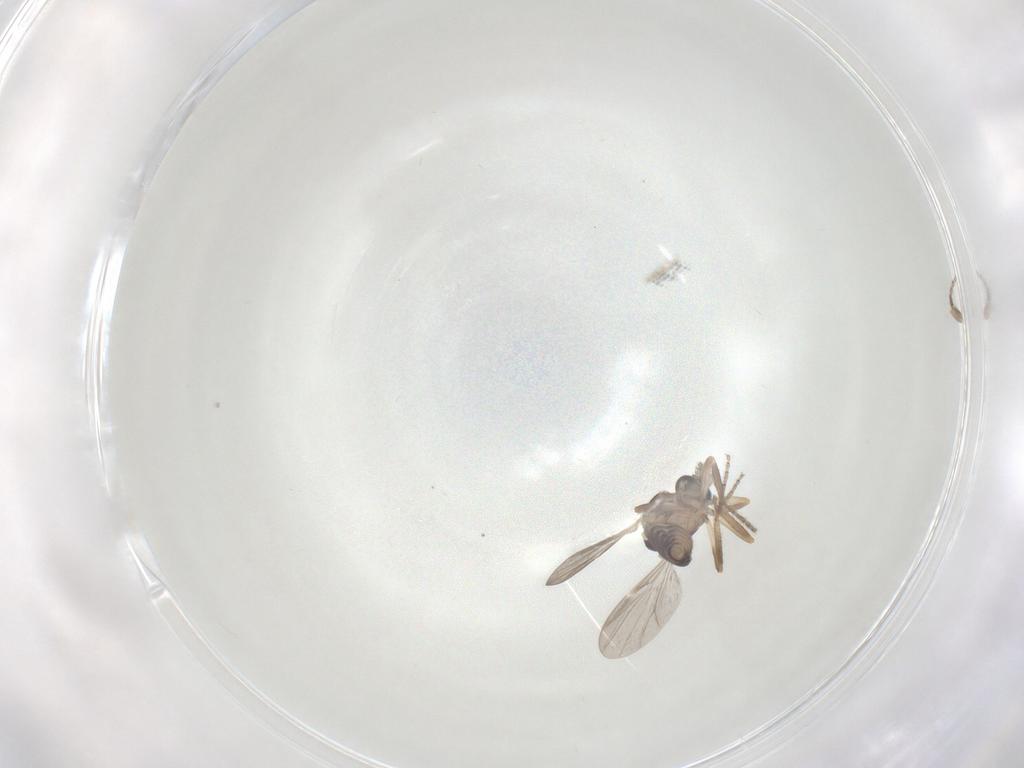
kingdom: Animalia
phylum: Arthropoda
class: Insecta
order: Diptera
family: Ceratopogonidae
